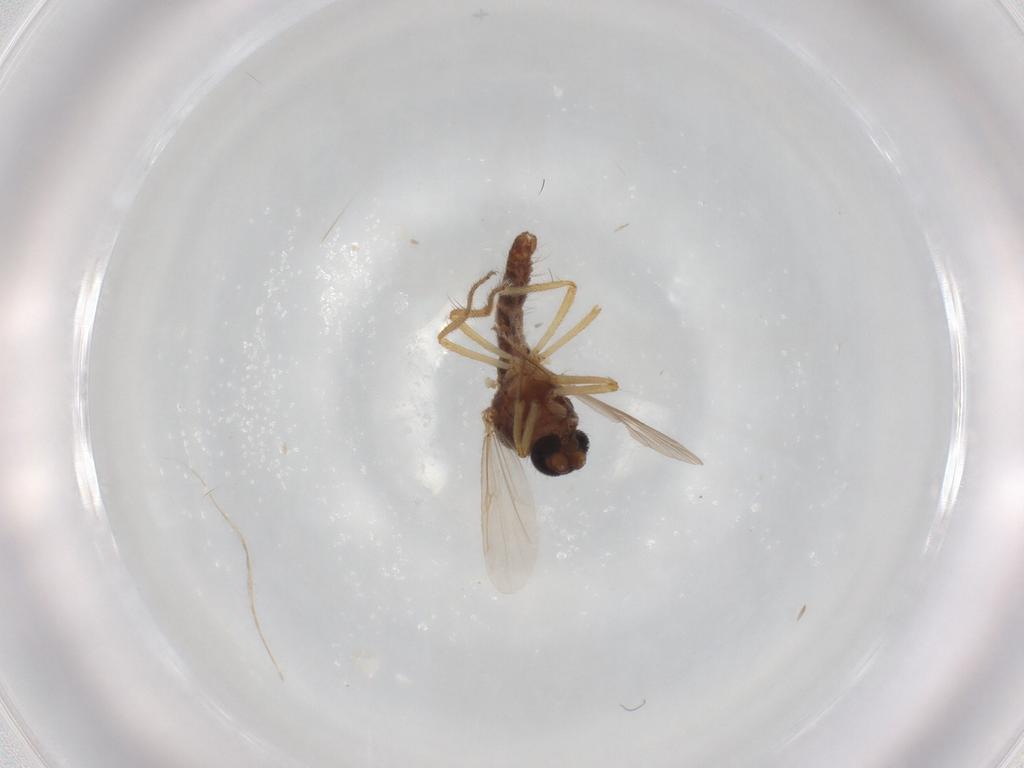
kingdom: Animalia
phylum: Arthropoda
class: Insecta
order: Diptera
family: Ceratopogonidae
